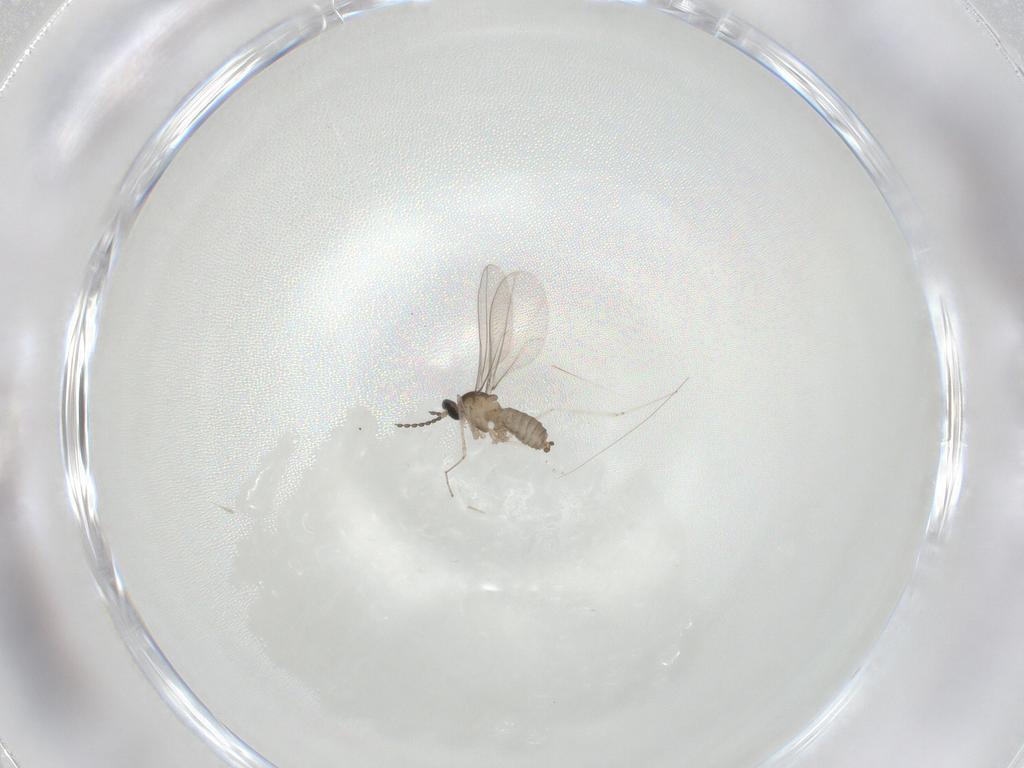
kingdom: Animalia
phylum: Arthropoda
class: Insecta
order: Diptera
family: Cecidomyiidae
